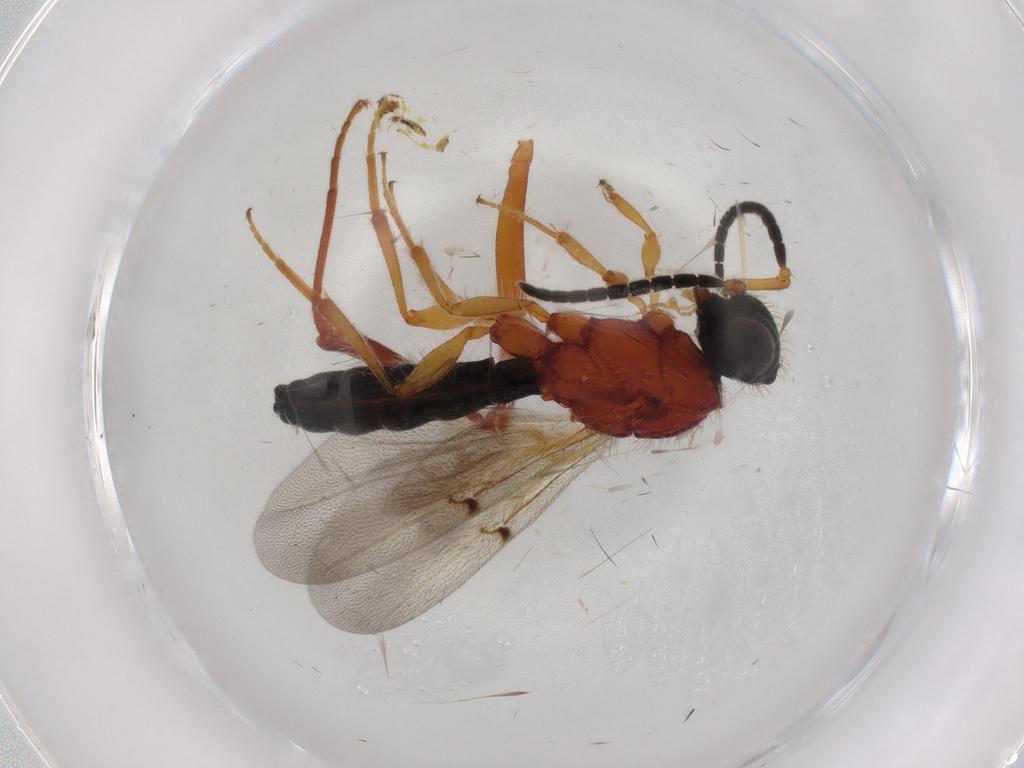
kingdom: Animalia
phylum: Arthropoda
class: Insecta
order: Hymenoptera
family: Scelionidae
